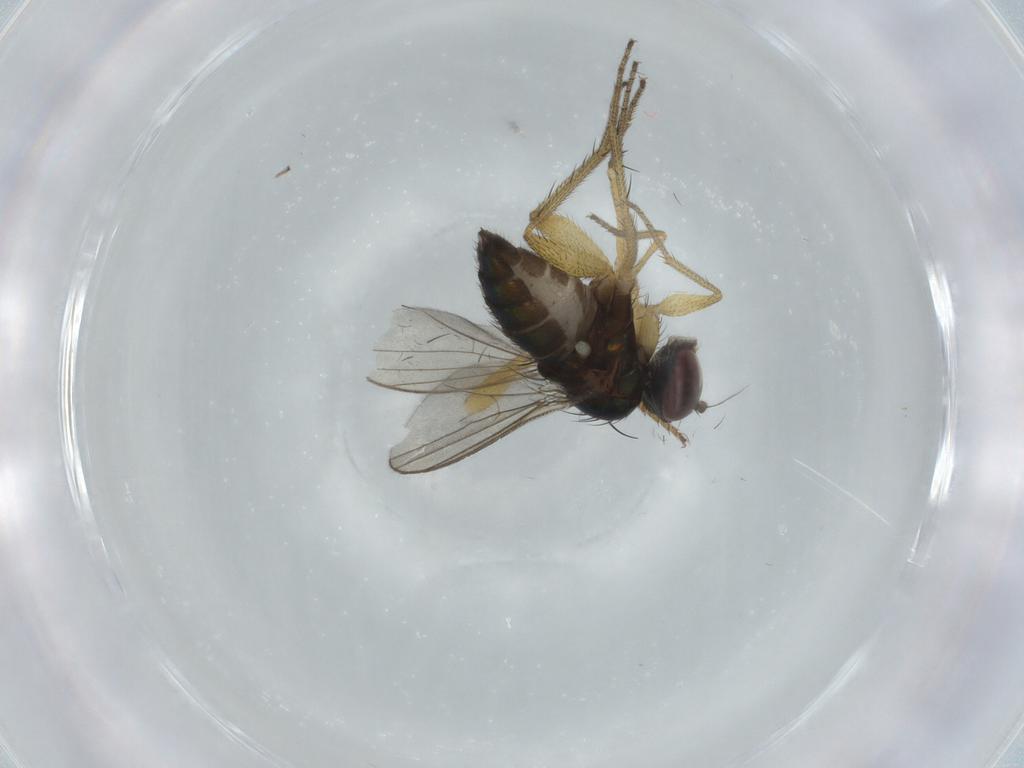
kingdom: Animalia
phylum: Arthropoda
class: Insecta
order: Diptera
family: Dolichopodidae
